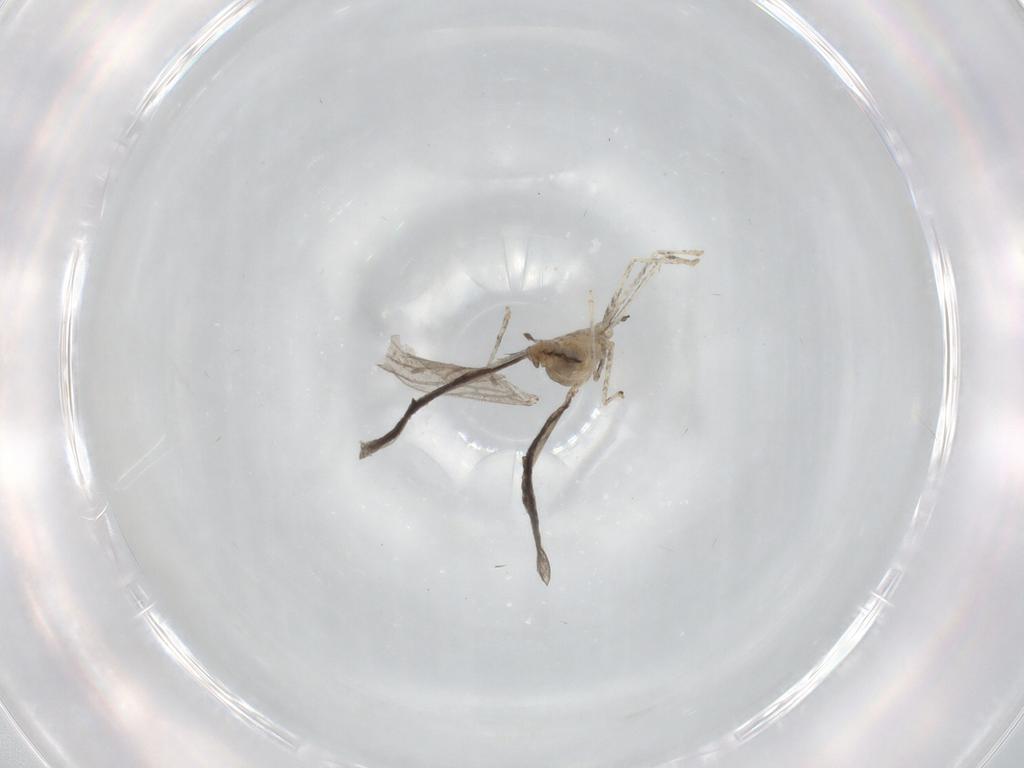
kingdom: Animalia
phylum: Arthropoda
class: Insecta
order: Diptera
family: Cecidomyiidae
